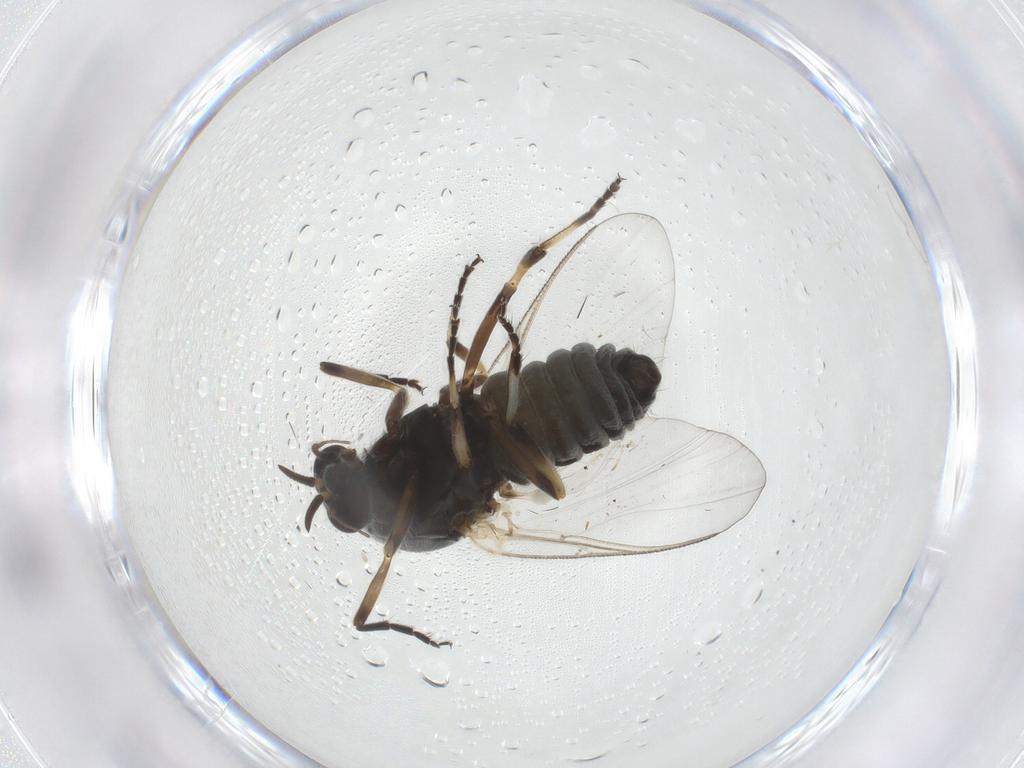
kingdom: Animalia
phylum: Arthropoda
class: Insecta
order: Diptera
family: Simuliidae
